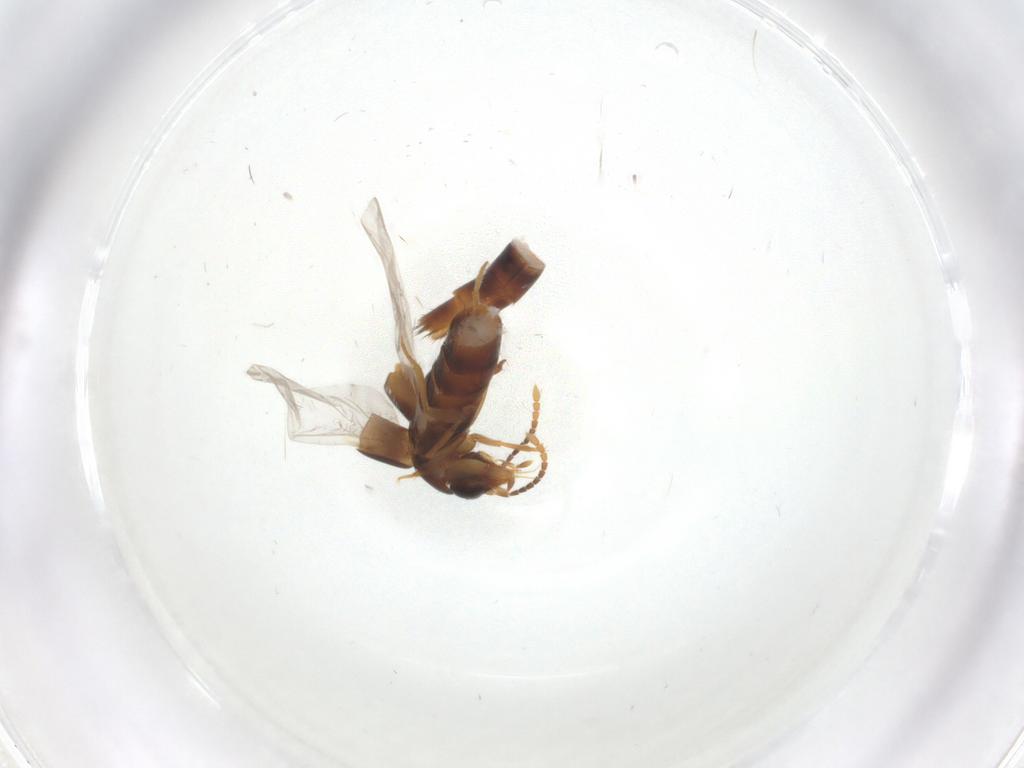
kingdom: Animalia
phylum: Arthropoda
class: Insecta
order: Coleoptera
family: Staphylinidae
